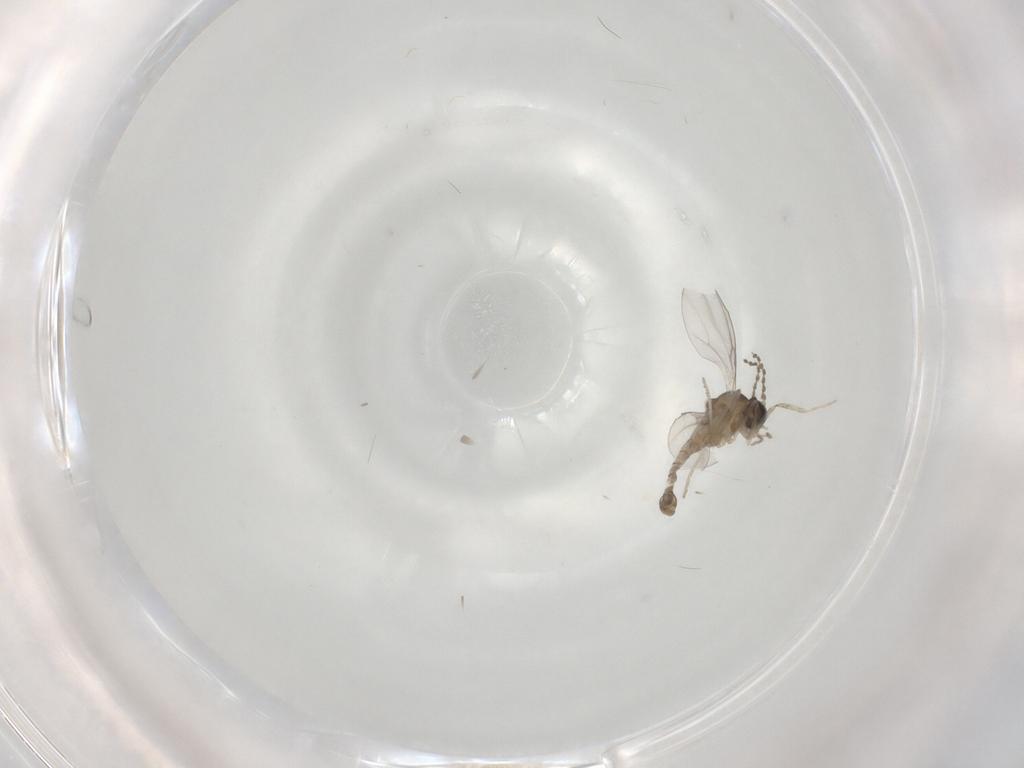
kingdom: Animalia
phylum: Arthropoda
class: Insecta
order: Diptera
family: Cecidomyiidae
